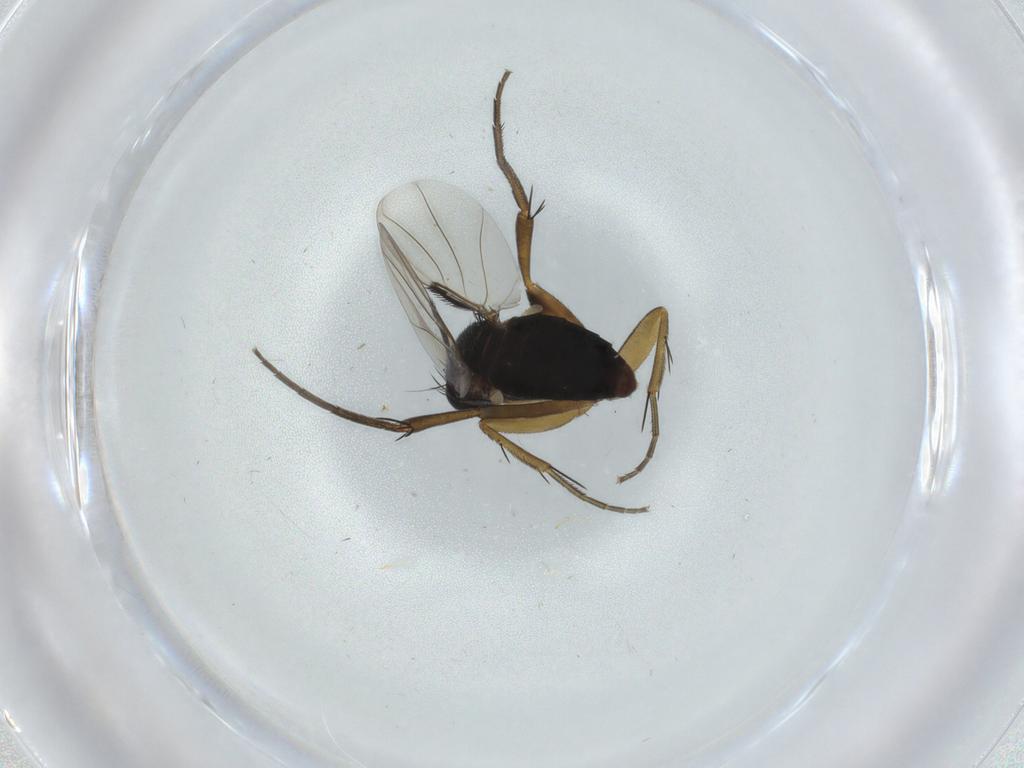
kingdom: Animalia
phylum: Arthropoda
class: Insecta
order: Diptera
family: Phoridae
